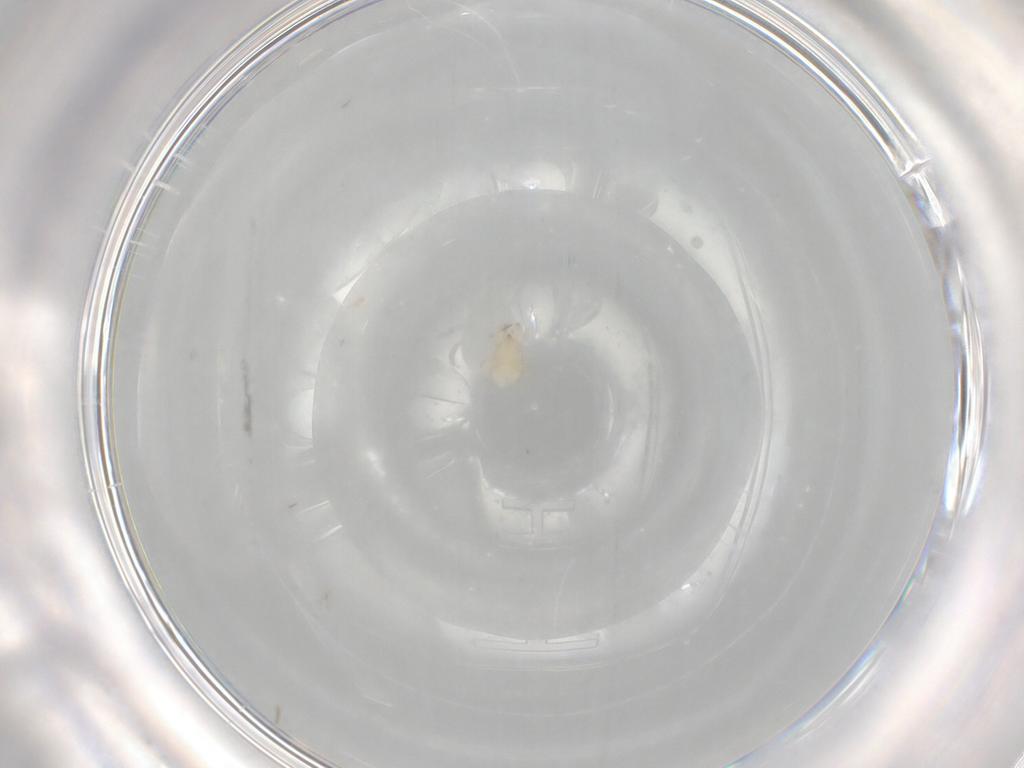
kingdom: Animalia
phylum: Arthropoda
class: Arachnida
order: Mesostigmata
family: Melicharidae
